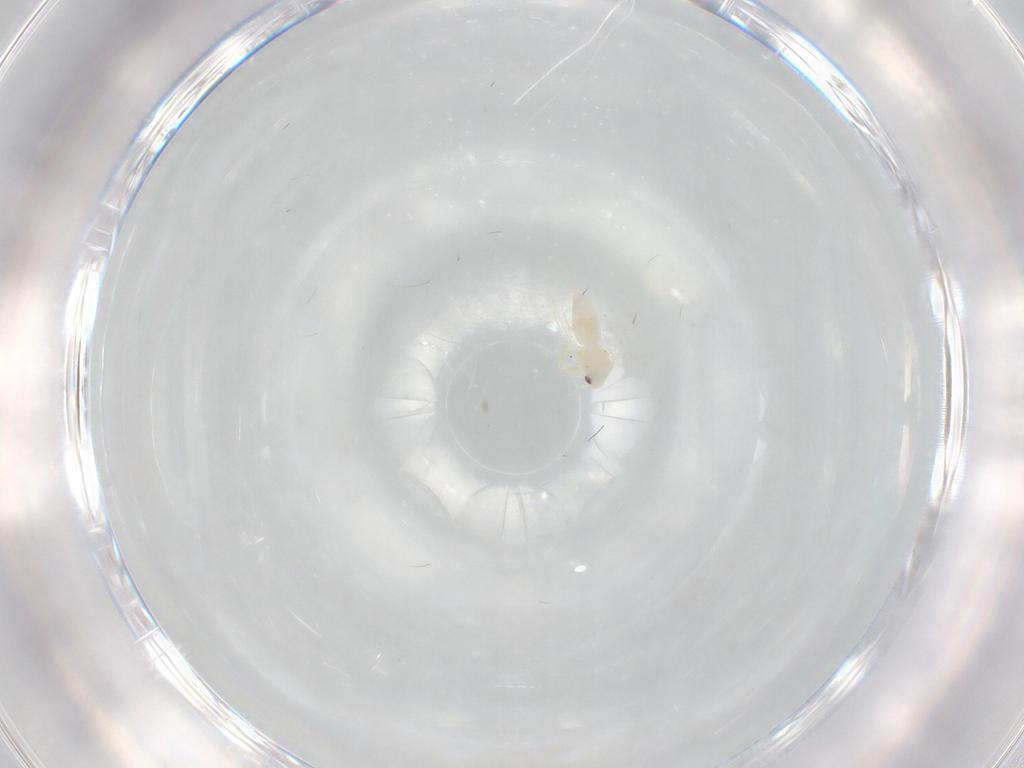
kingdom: Animalia
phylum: Arthropoda
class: Insecta
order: Hemiptera
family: Aleyrodidae
